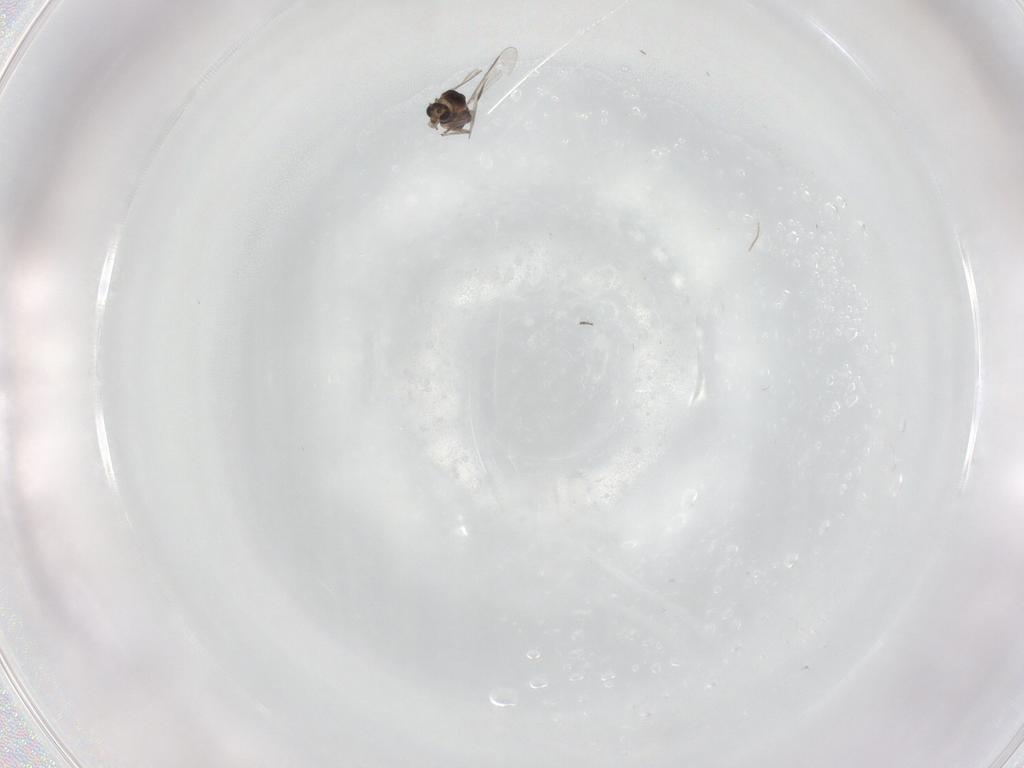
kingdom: Animalia
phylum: Arthropoda
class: Insecta
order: Diptera
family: Chironomidae
